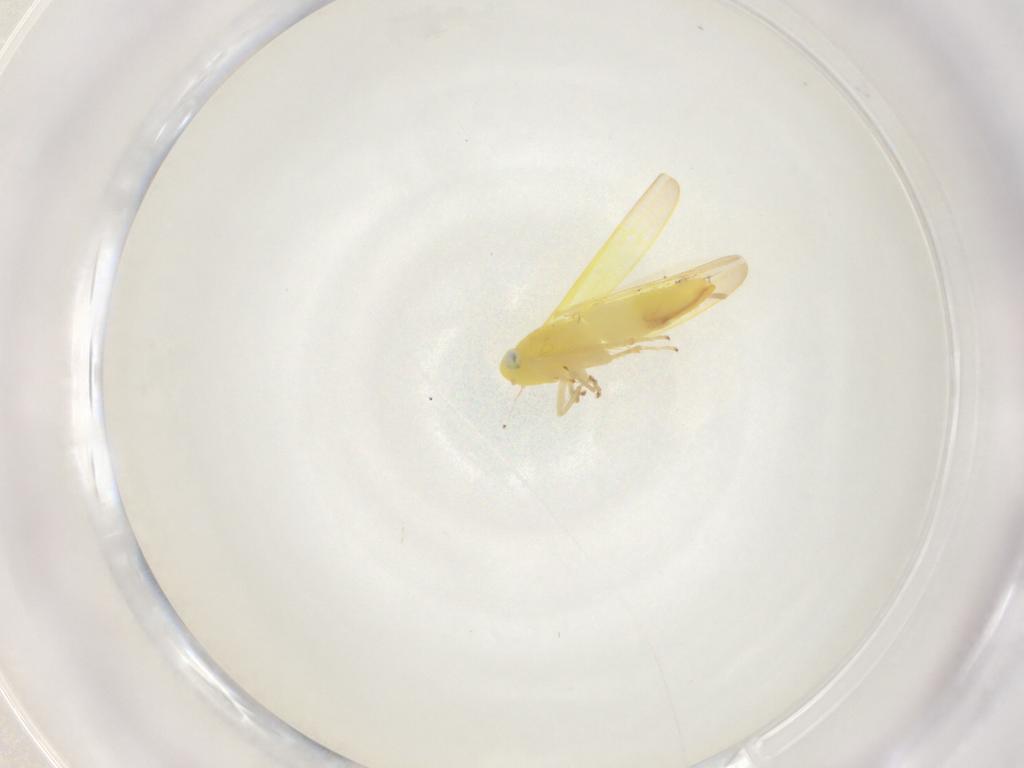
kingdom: Animalia
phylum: Arthropoda
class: Insecta
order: Hemiptera
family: Cicadellidae
